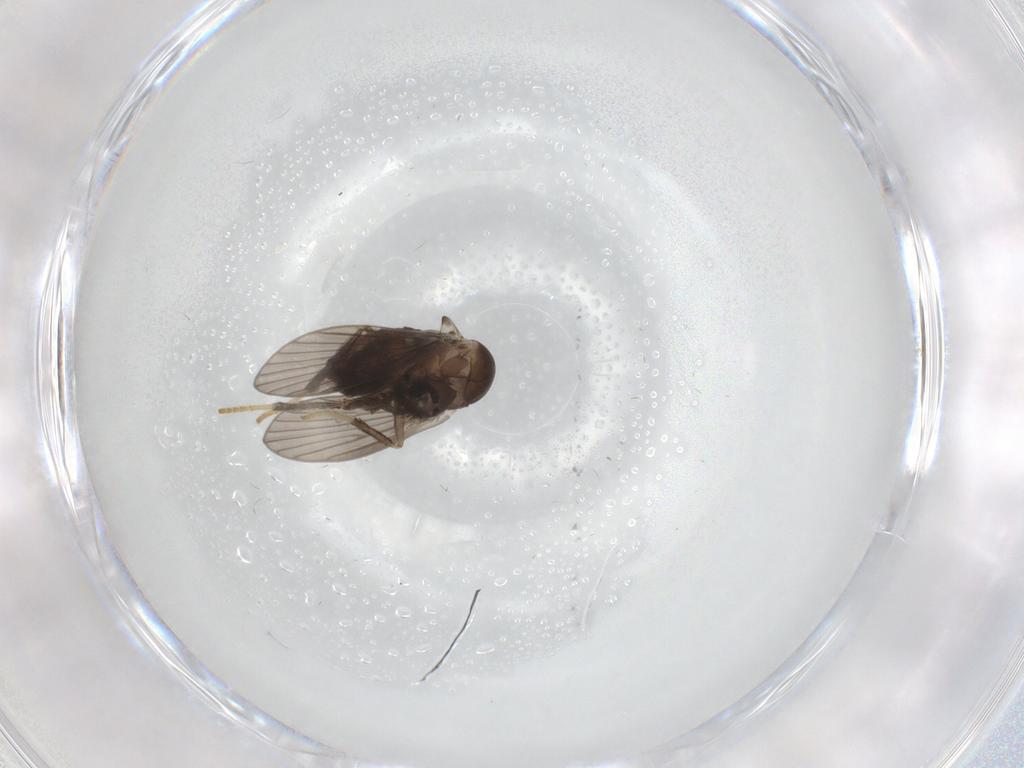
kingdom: Animalia
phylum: Arthropoda
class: Insecta
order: Diptera
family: Psychodidae
